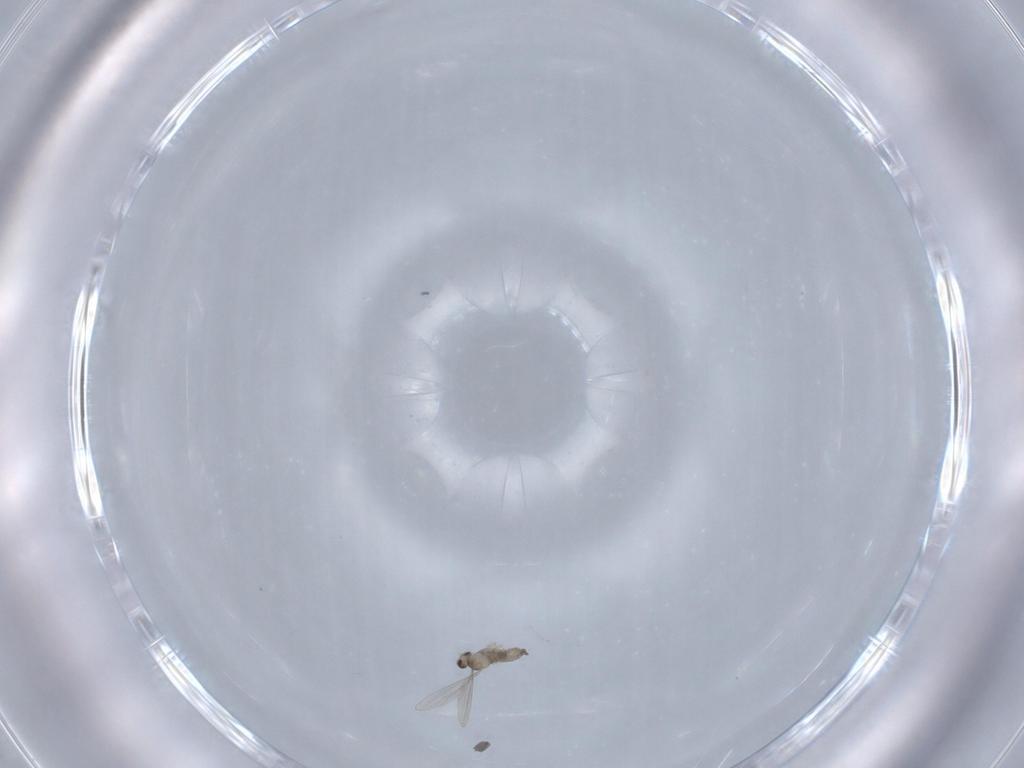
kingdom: Animalia
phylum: Arthropoda
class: Insecta
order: Diptera
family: Cecidomyiidae
